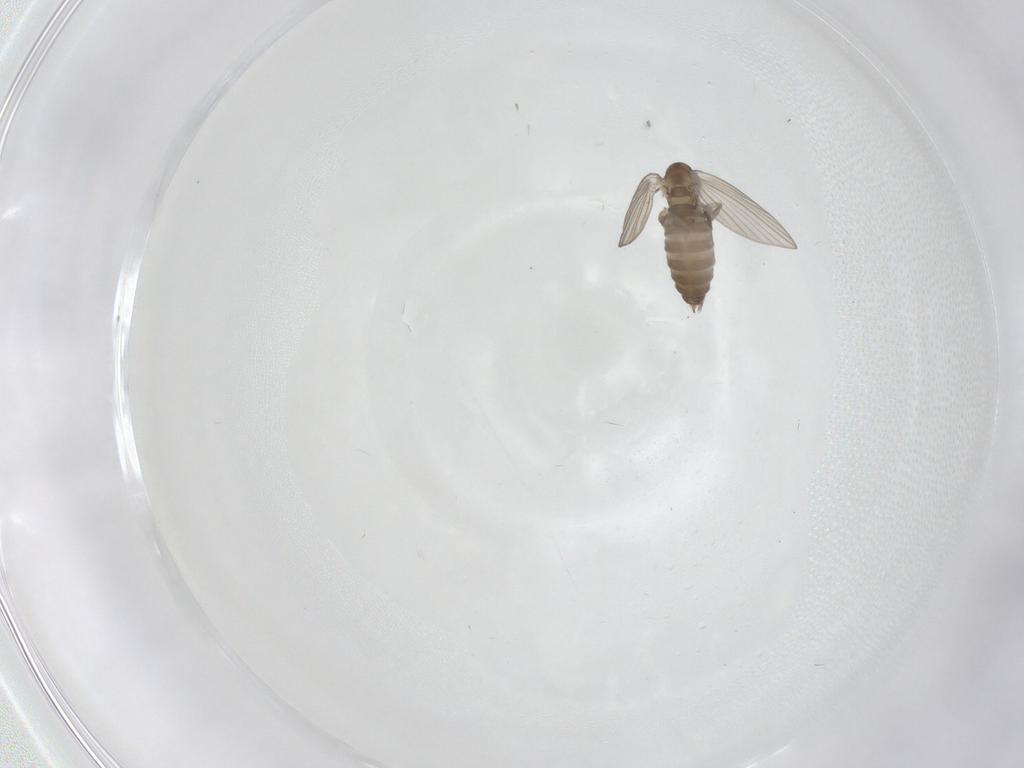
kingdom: Animalia
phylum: Arthropoda
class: Insecta
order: Diptera
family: Psychodidae
